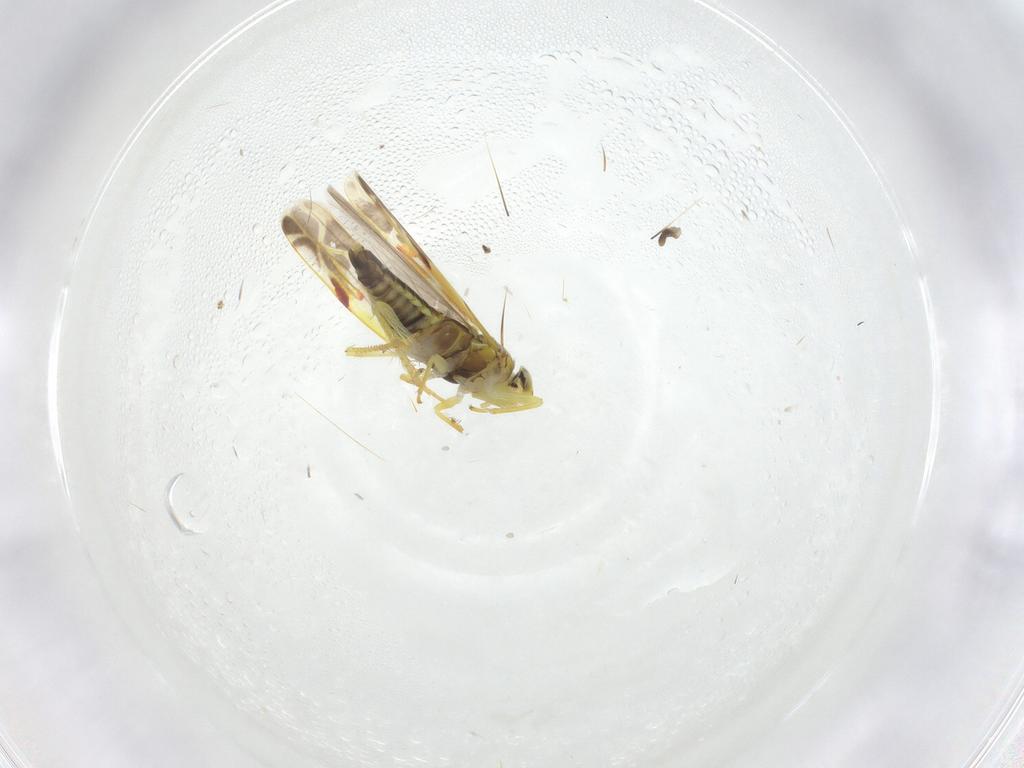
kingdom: Animalia
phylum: Arthropoda
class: Insecta
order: Hemiptera
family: Cicadellidae
